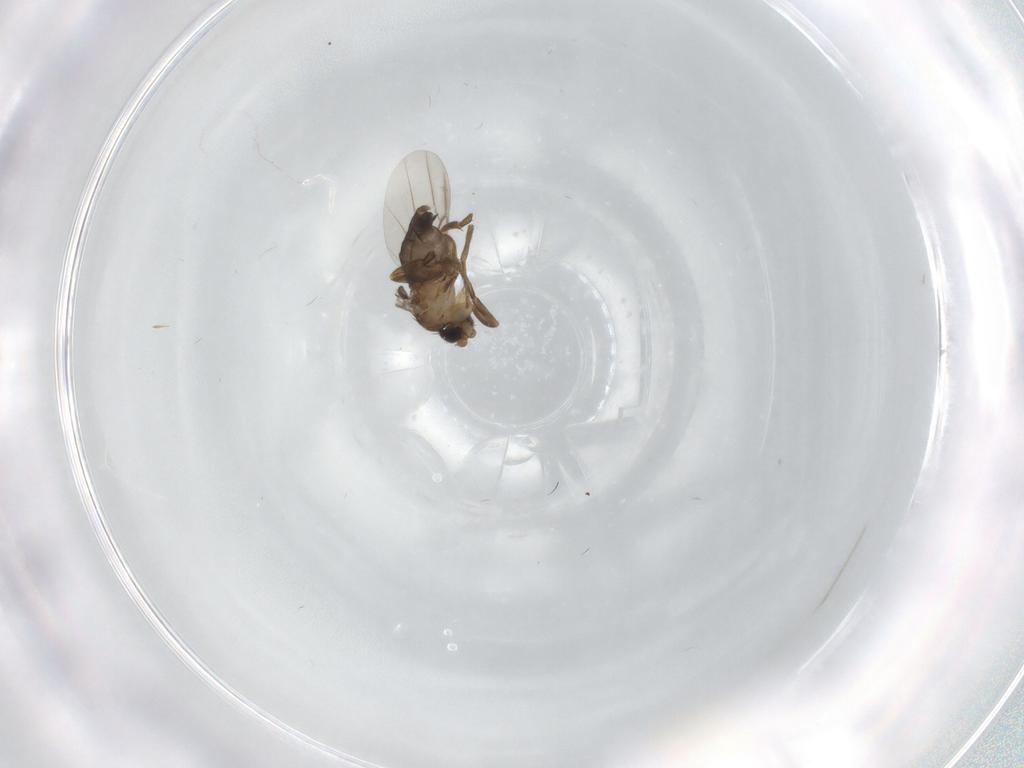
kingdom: Animalia
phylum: Arthropoda
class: Insecta
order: Diptera
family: Phoridae
